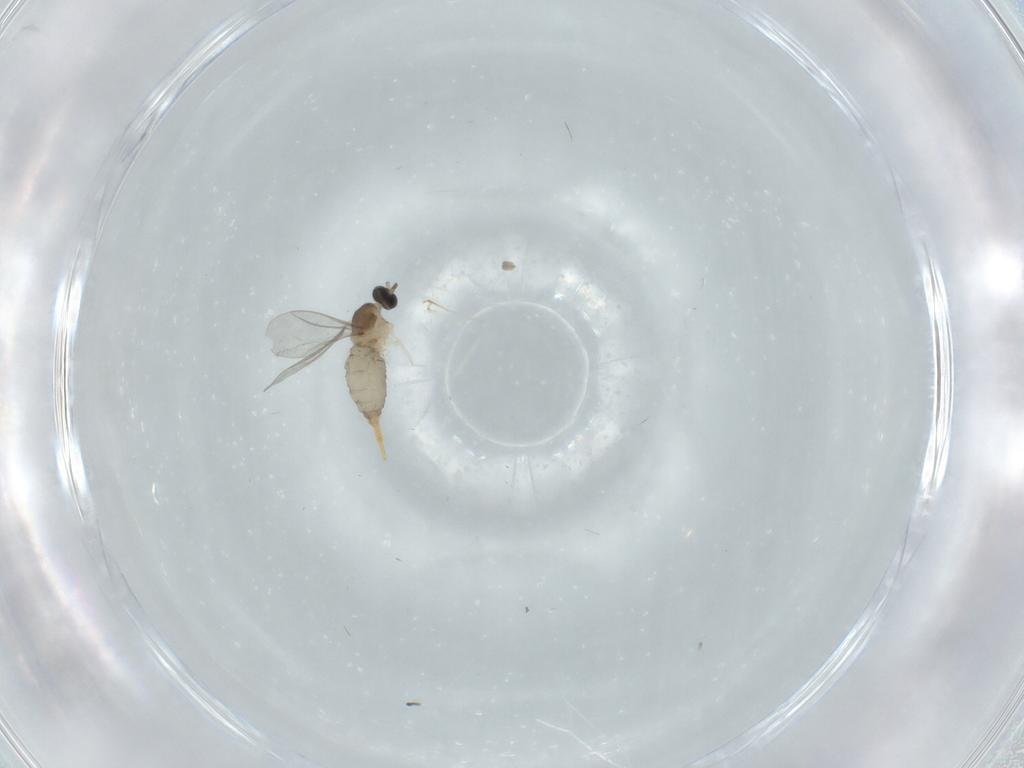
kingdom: Animalia
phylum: Arthropoda
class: Insecta
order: Diptera
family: Cecidomyiidae
